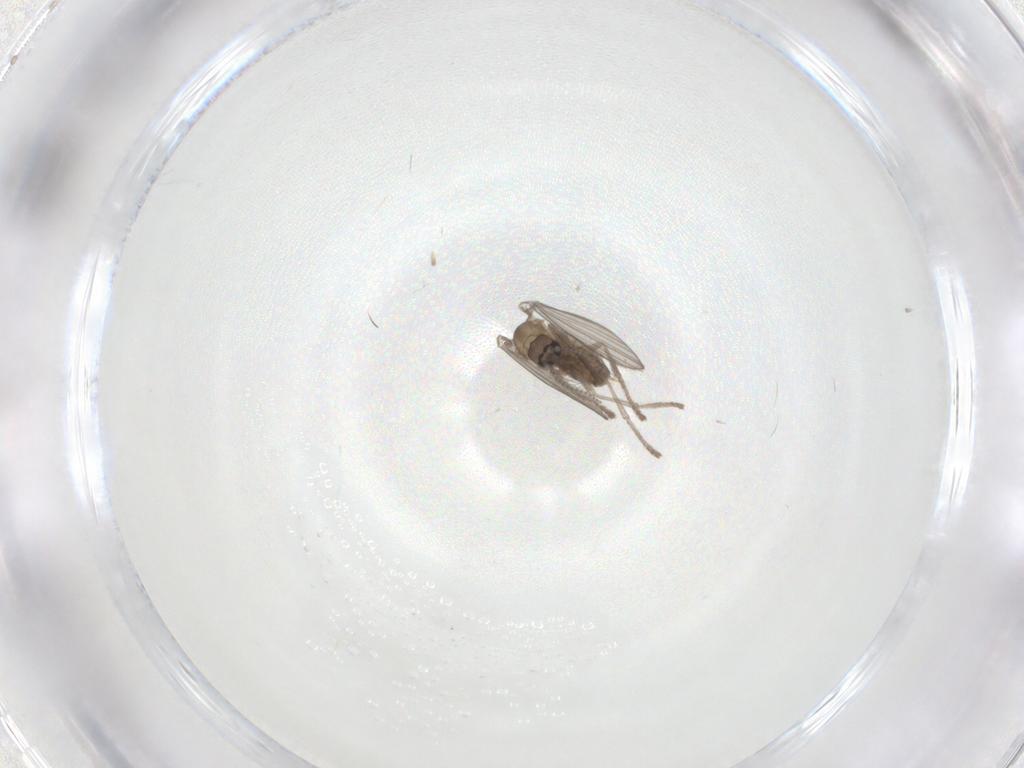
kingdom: Animalia
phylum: Arthropoda
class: Insecta
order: Diptera
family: Psychodidae
